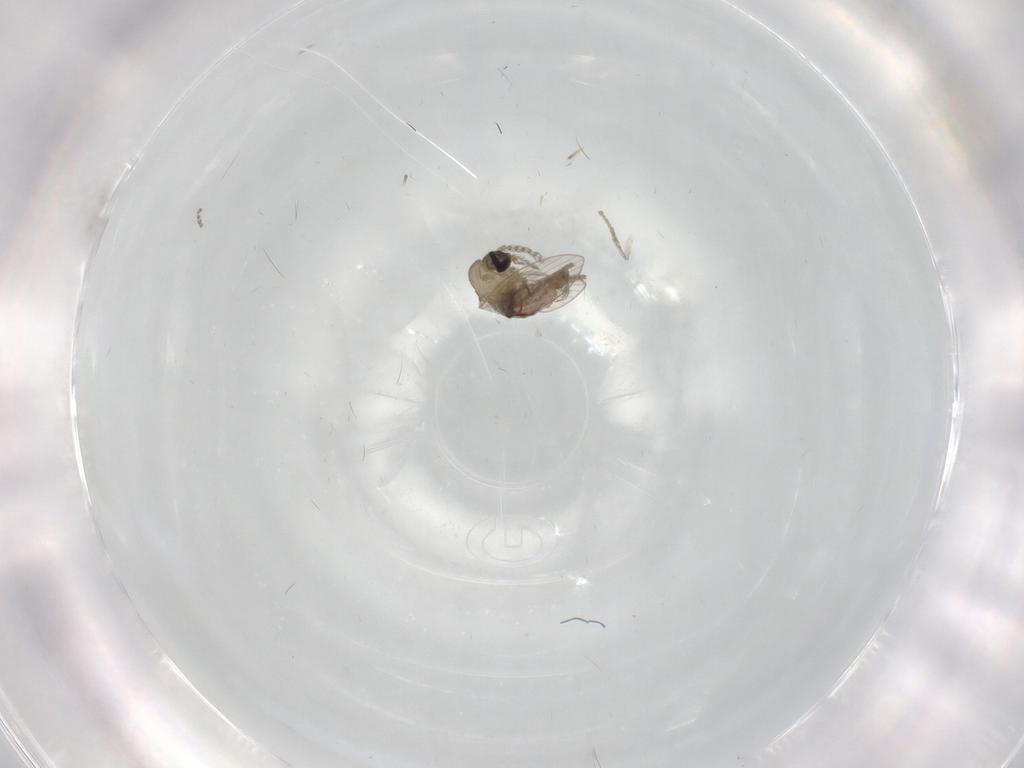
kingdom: Animalia
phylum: Arthropoda
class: Insecta
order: Diptera
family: Psychodidae
